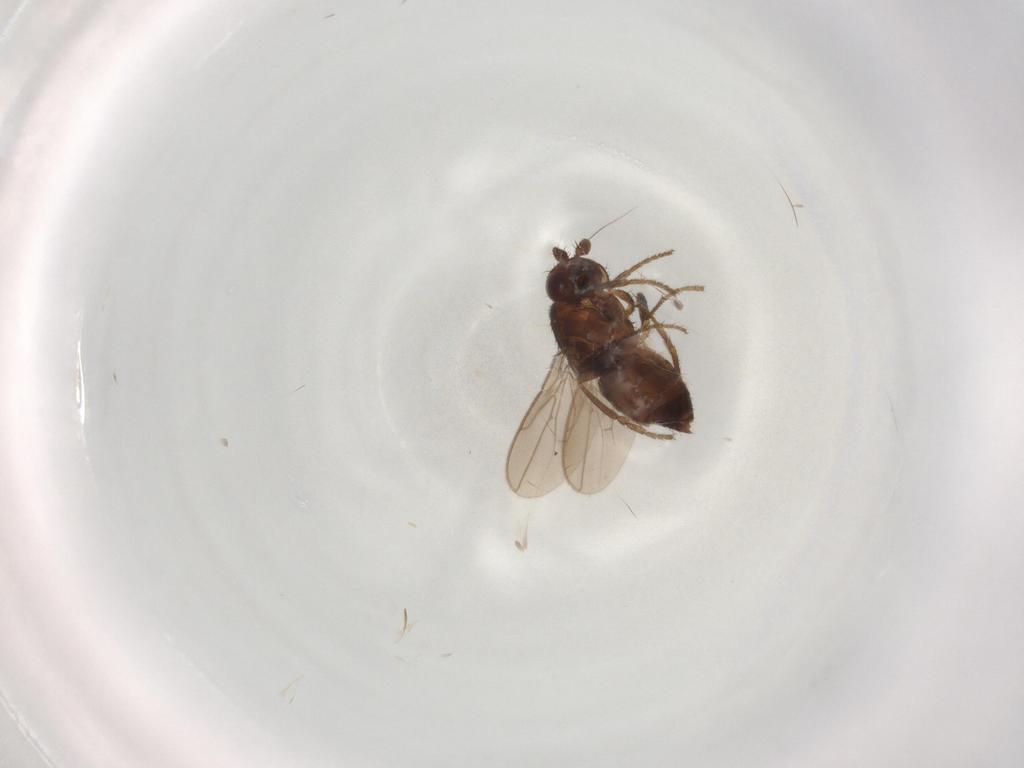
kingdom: Animalia
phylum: Arthropoda
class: Insecta
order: Diptera
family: Sphaeroceridae
